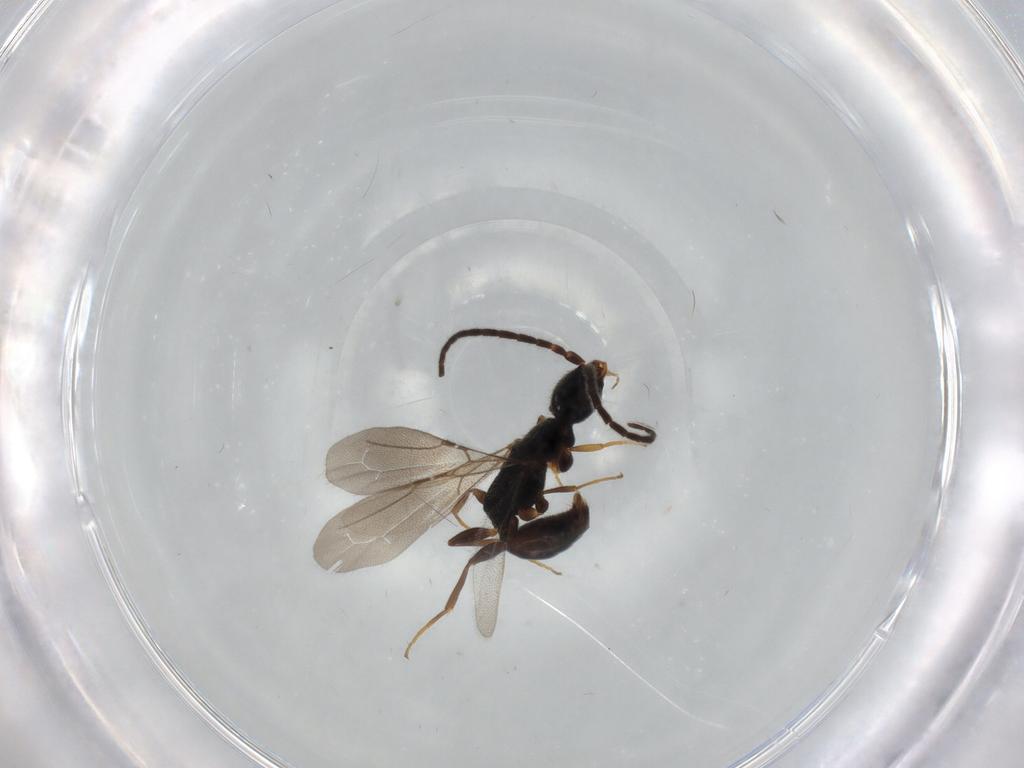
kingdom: Animalia
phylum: Arthropoda
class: Insecta
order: Hymenoptera
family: Bethylidae
